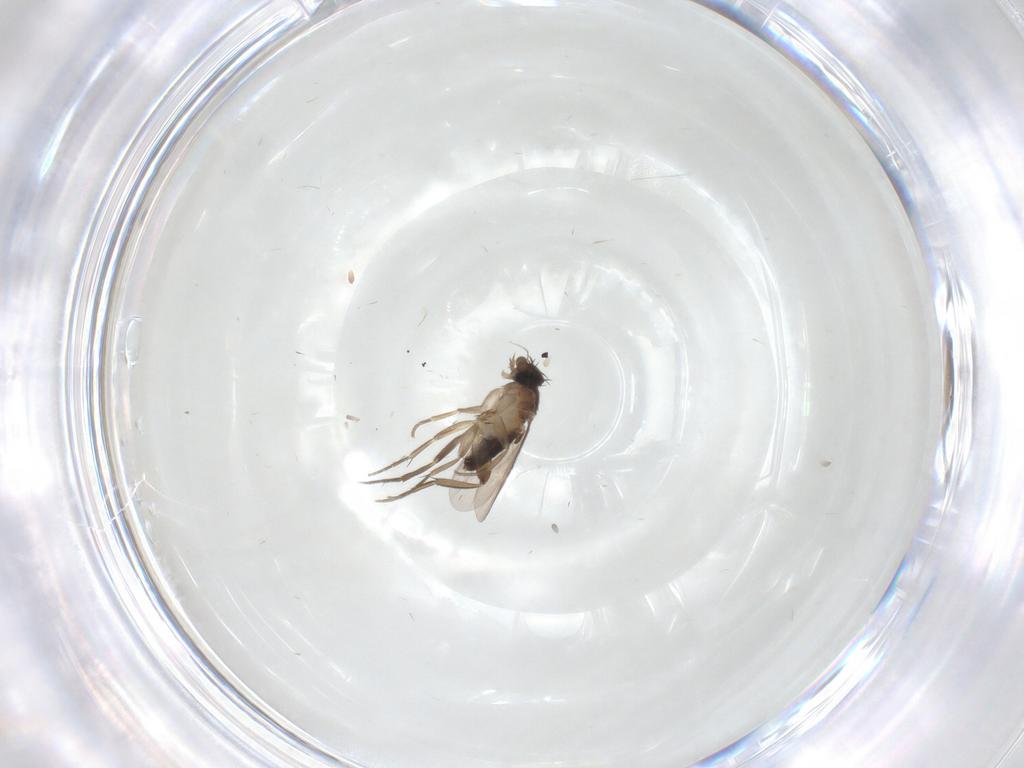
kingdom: Animalia
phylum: Arthropoda
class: Insecta
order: Diptera
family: Phoridae
